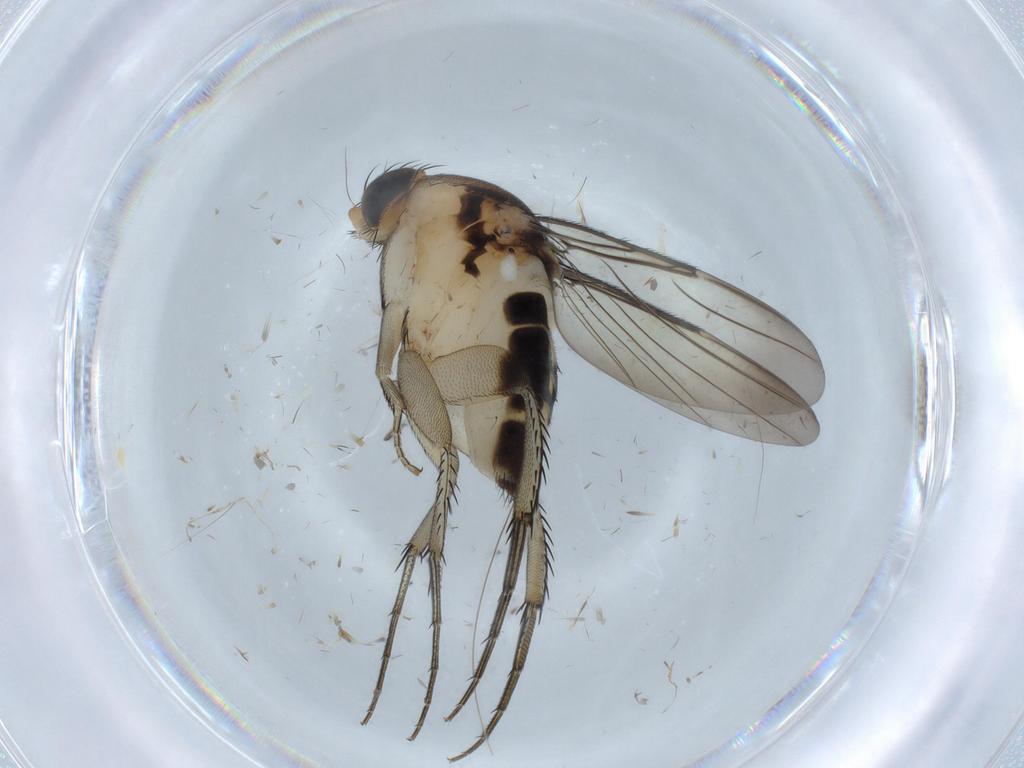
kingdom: Animalia
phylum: Arthropoda
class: Insecta
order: Diptera
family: Phoridae
